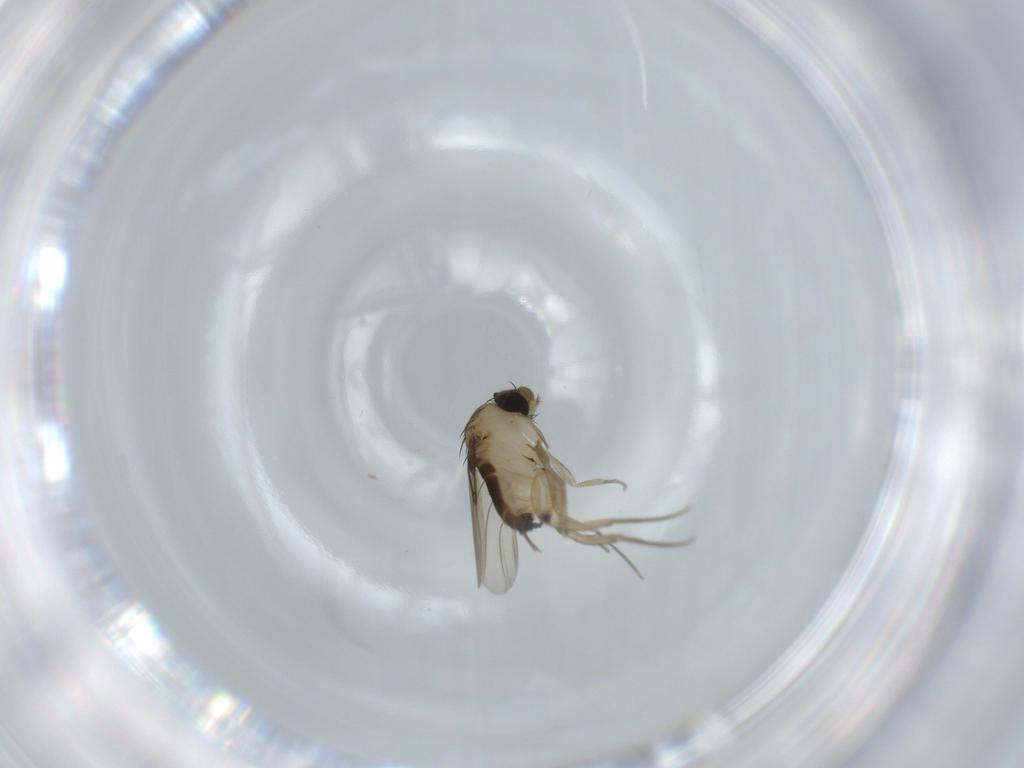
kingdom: Animalia
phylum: Arthropoda
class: Insecta
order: Diptera
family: Phoridae
